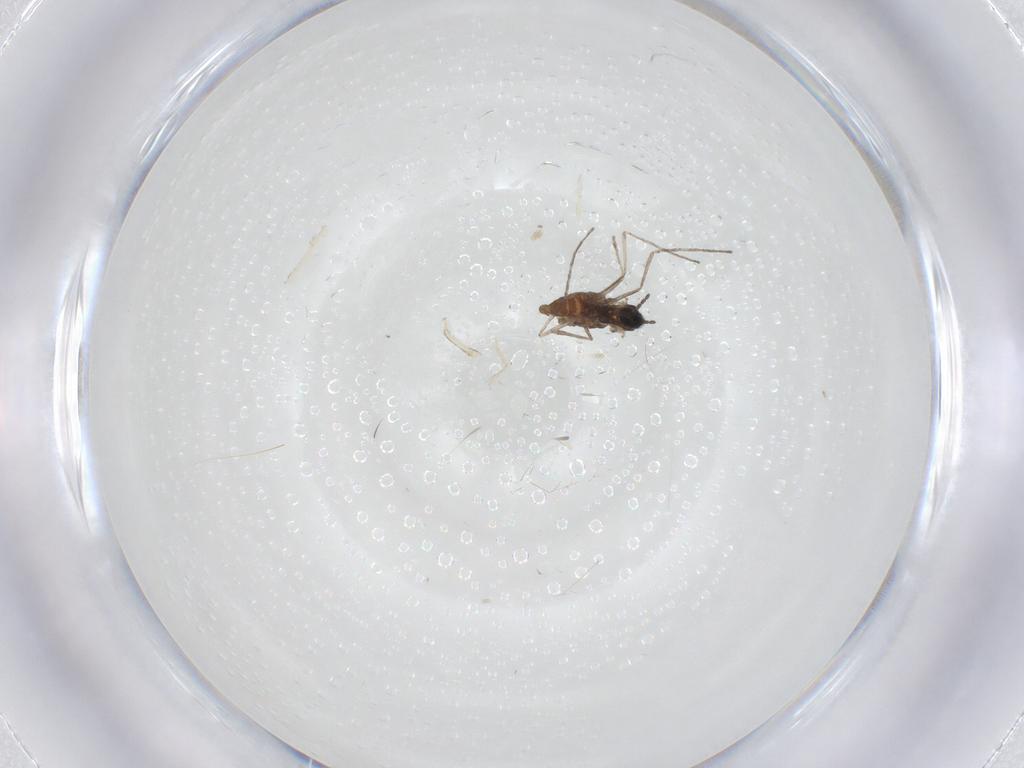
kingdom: Animalia
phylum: Arthropoda
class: Insecta
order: Diptera
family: Cecidomyiidae
